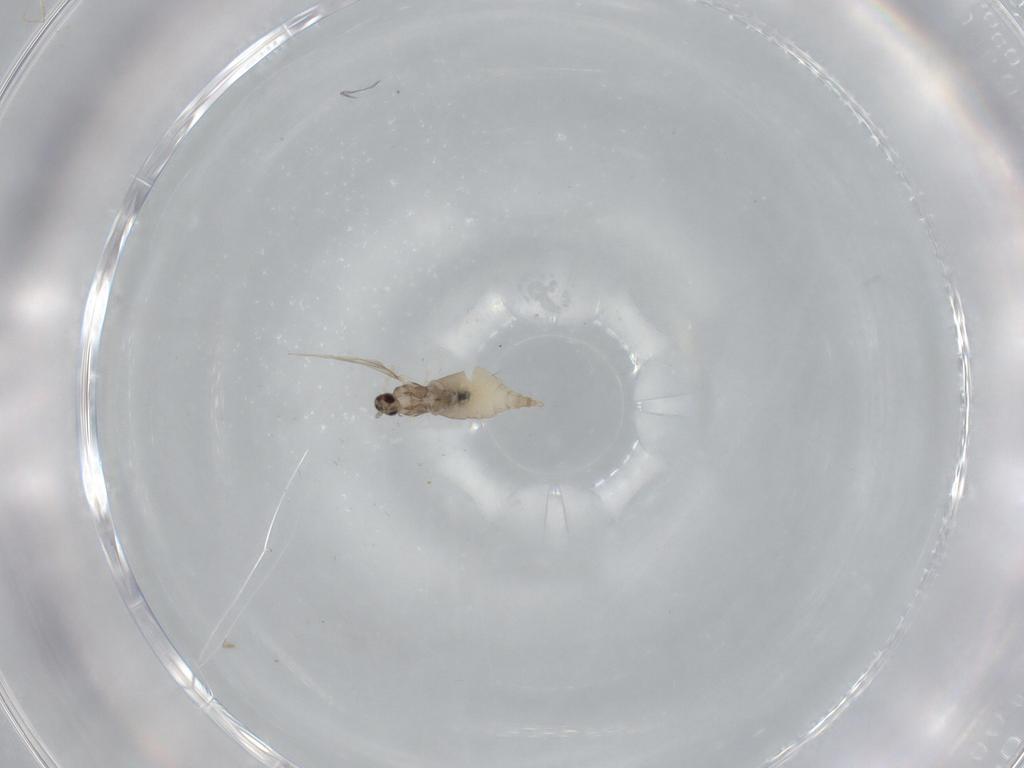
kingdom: Animalia
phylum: Arthropoda
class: Insecta
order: Diptera
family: Cecidomyiidae
